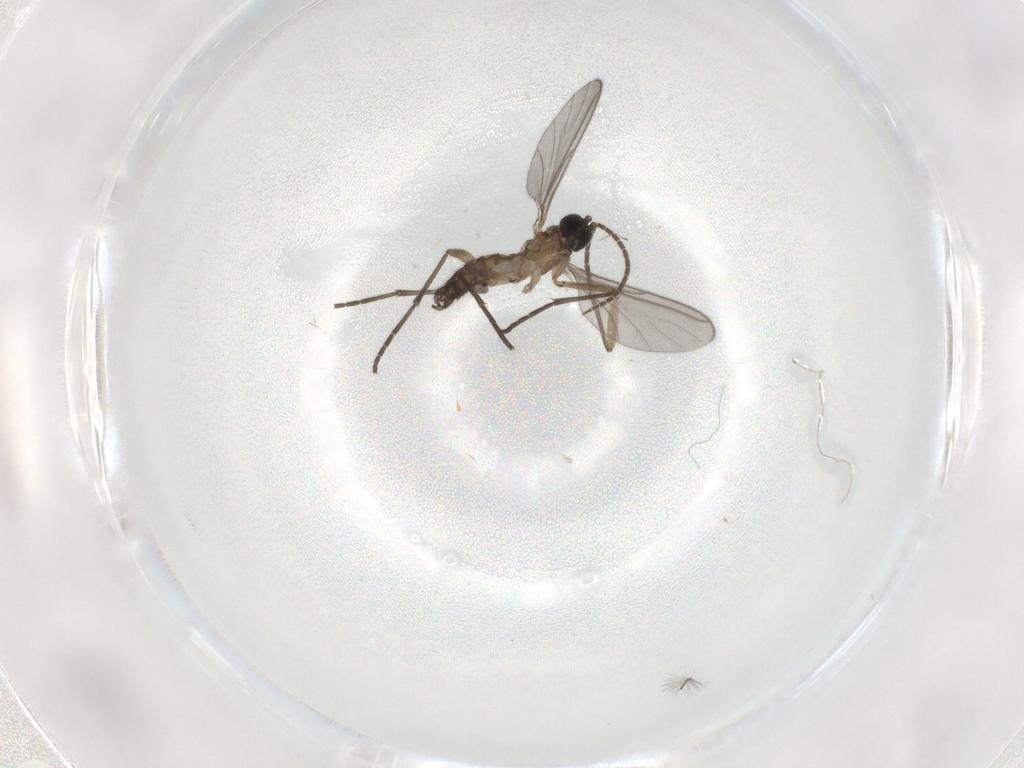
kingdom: Animalia
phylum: Arthropoda
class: Insecta
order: Diptera
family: Sciaridae
